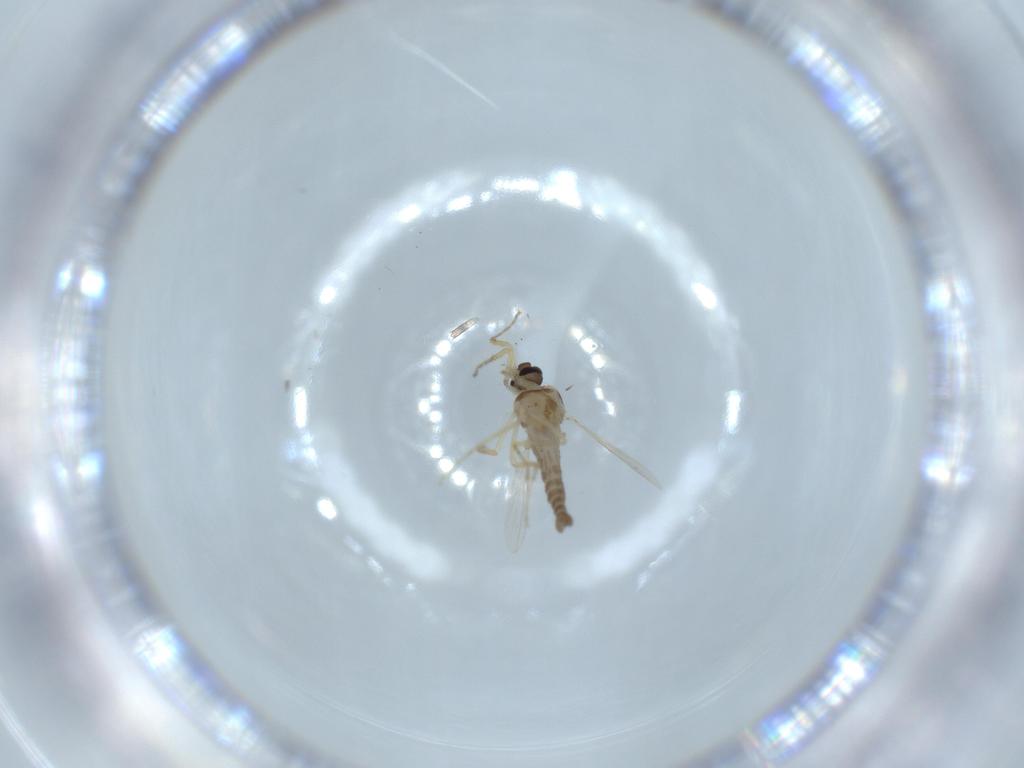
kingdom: Animalia
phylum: Arthropoda
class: Insecta
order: Diptera
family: Ceratopogonidae
